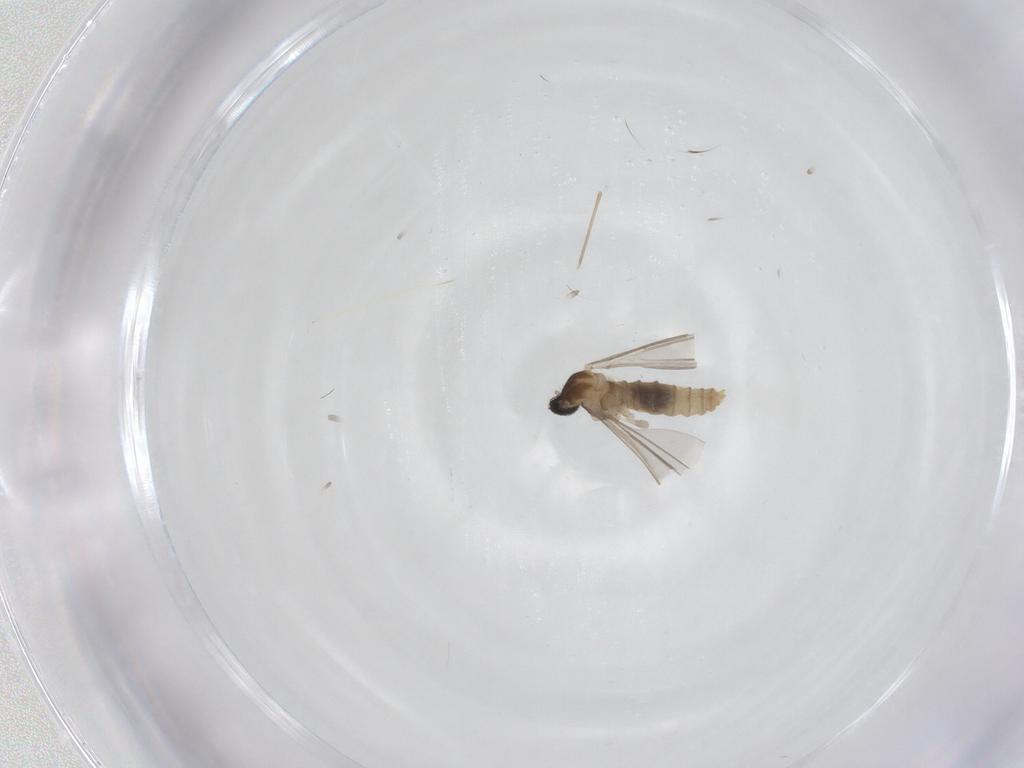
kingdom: Animalia
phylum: Arthropoda
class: Insecta
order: Diptera
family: Cecidomyiidae
